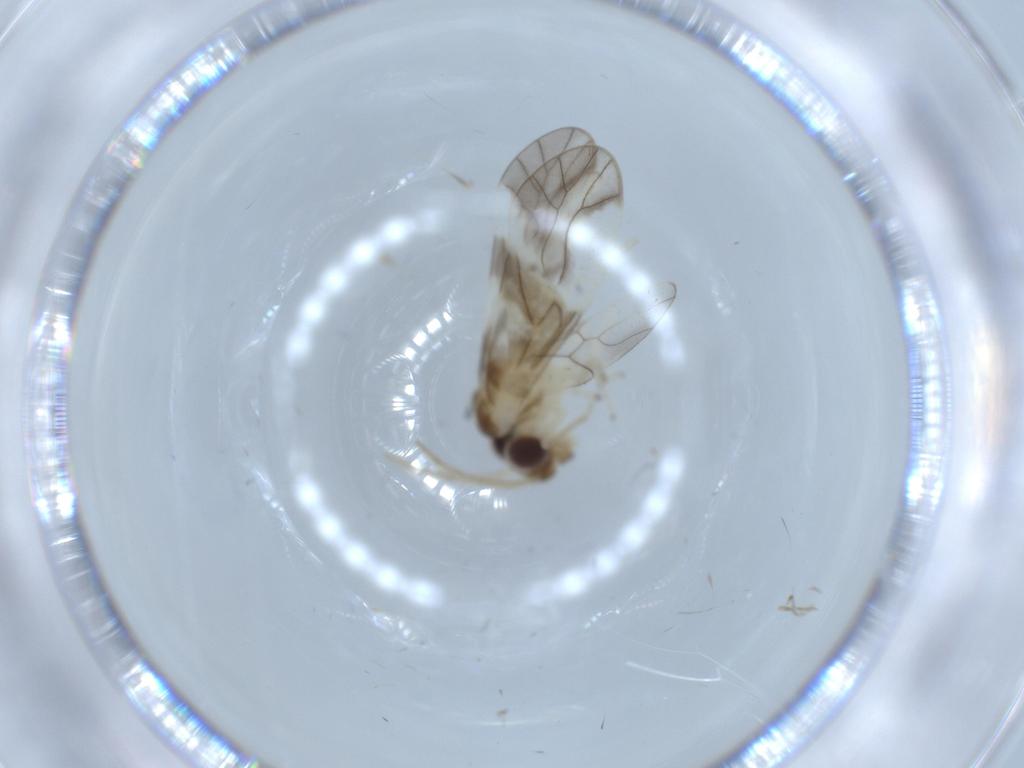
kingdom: Animalia
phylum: Arthropoda
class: Insecta
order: Psocodea
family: Caeciliusidae
